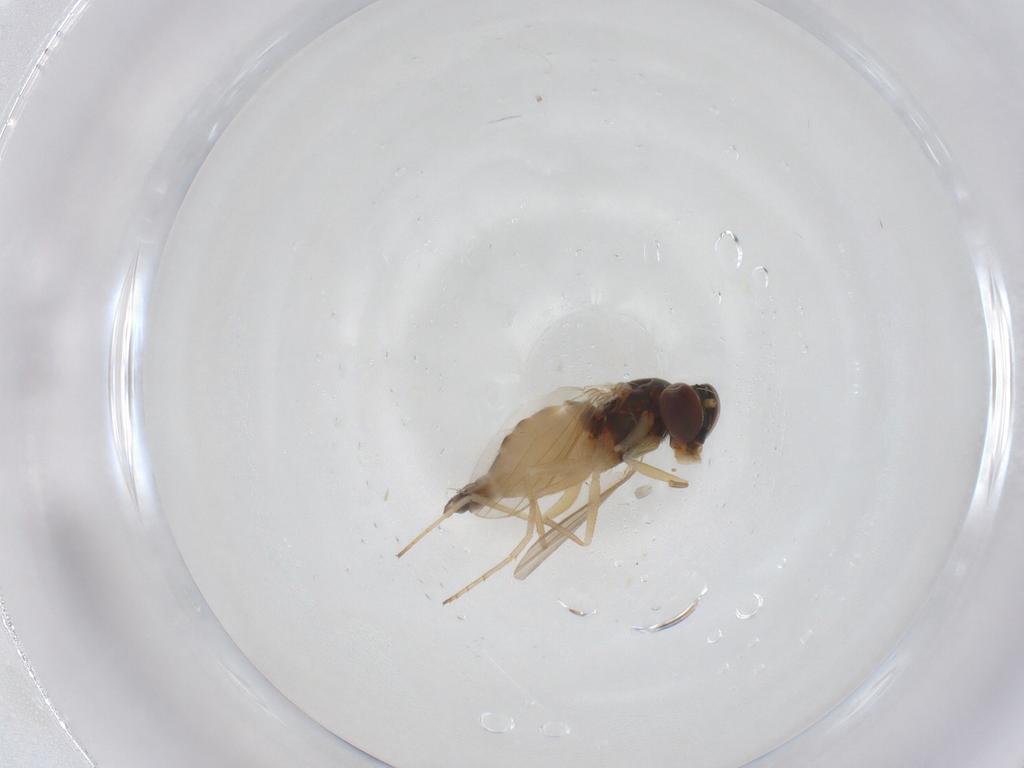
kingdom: Animalia
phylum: Arthropoda
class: Insecta
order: Diptera
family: Dolichopodidae
